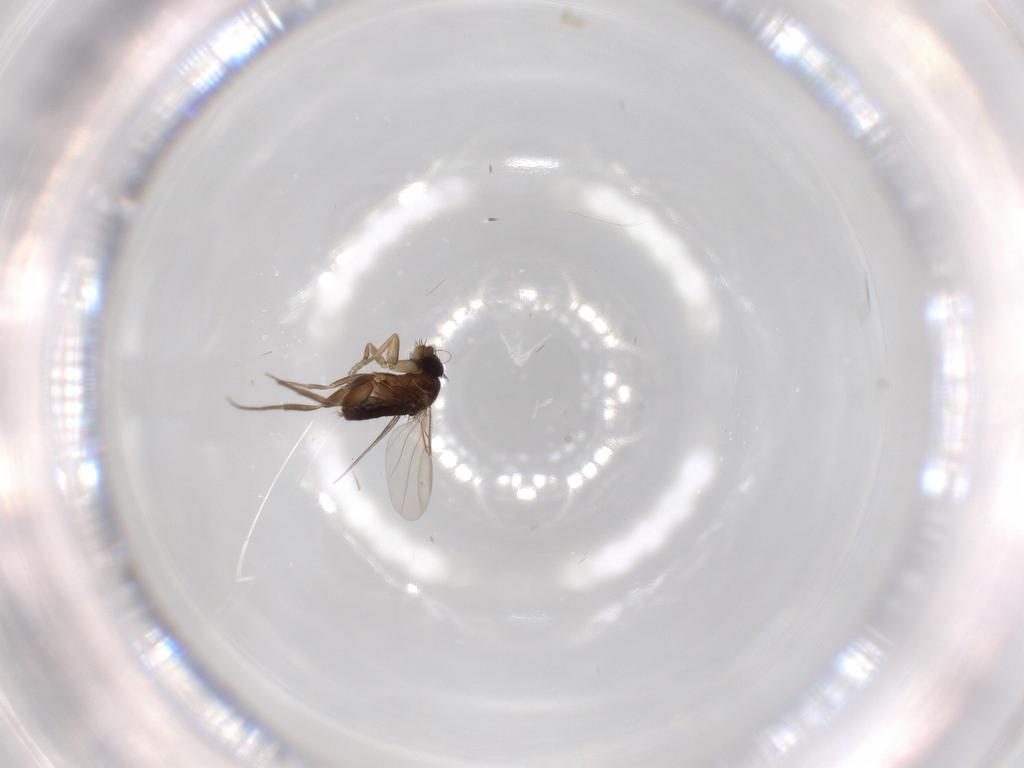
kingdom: Animalia
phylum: Arthropoda
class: Insecta
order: Diptera
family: Phoridae
